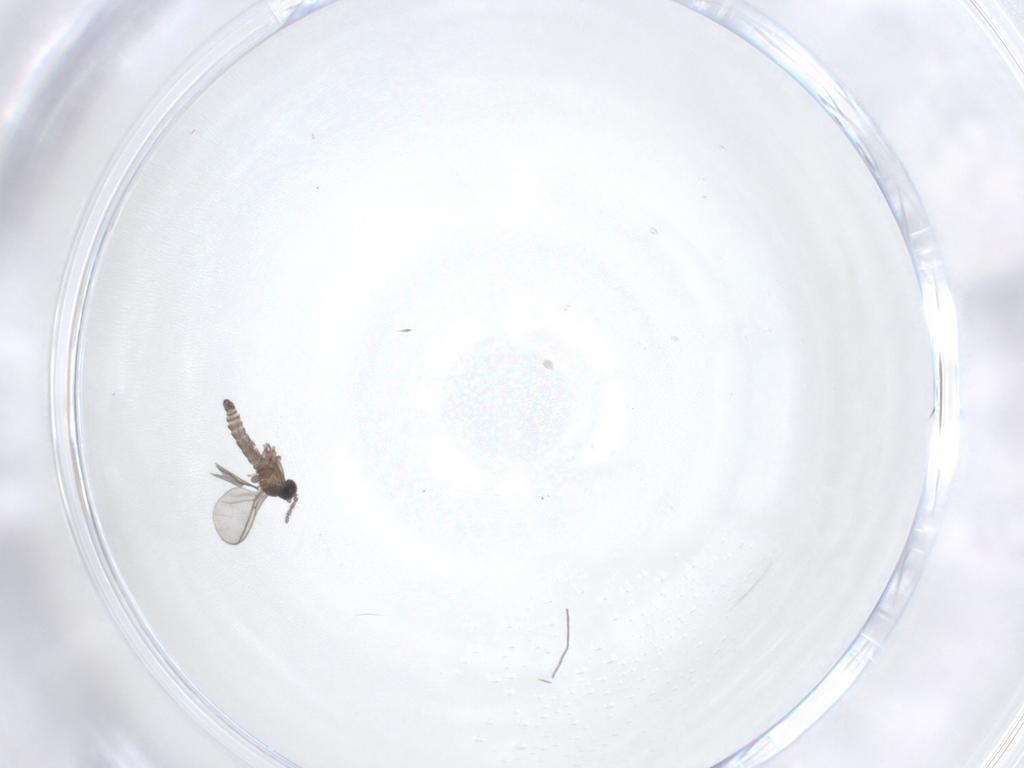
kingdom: Animalia
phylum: Arthropoda
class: Insecta
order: Diptera
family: Sciaridae
